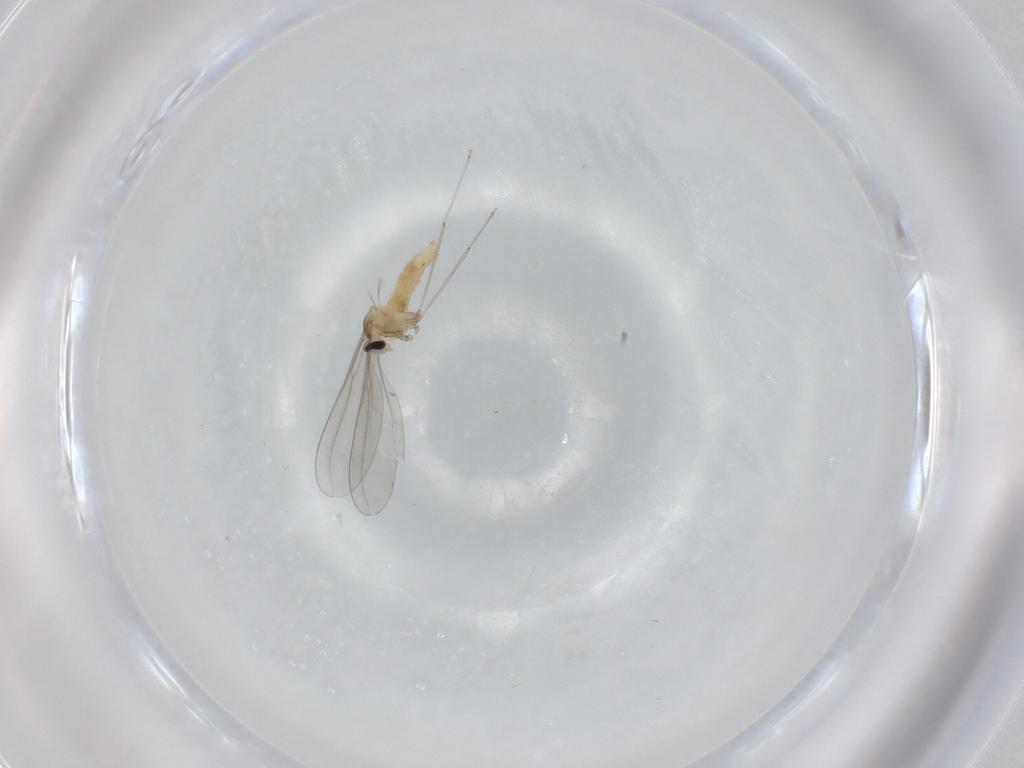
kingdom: Animalia
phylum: Arthropoda
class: Insecta
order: Diptera
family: Cecidomyiidae
